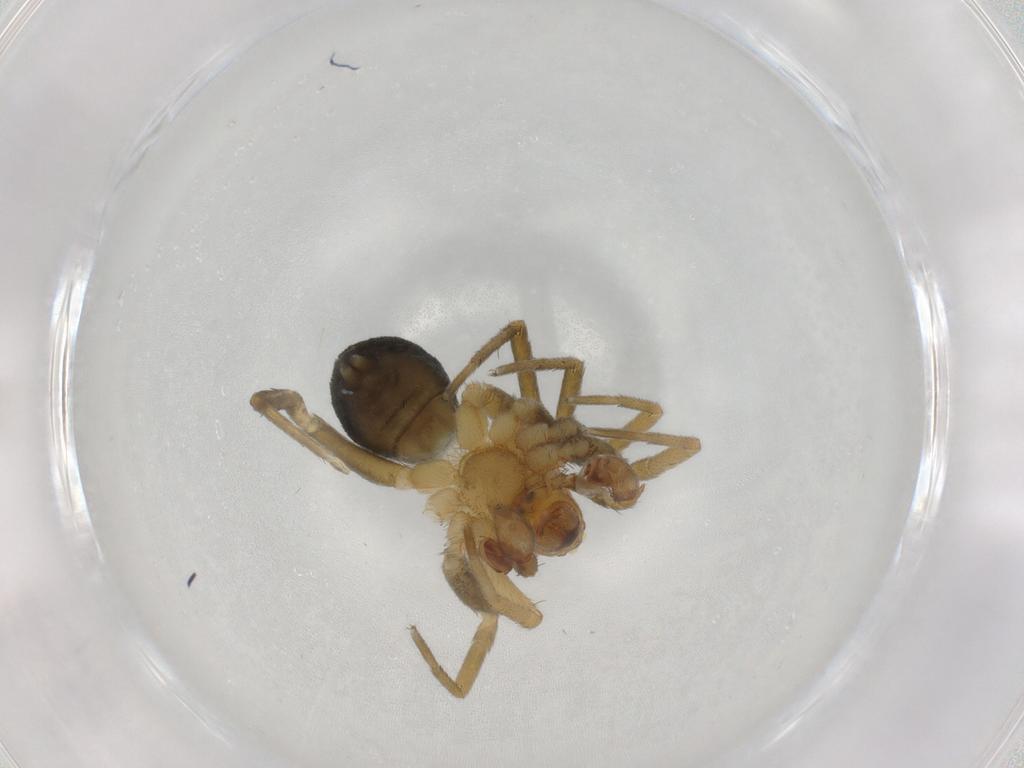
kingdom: Animalia
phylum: Arthropoda
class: Arachnida
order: Araneae
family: Anyphaenidae
